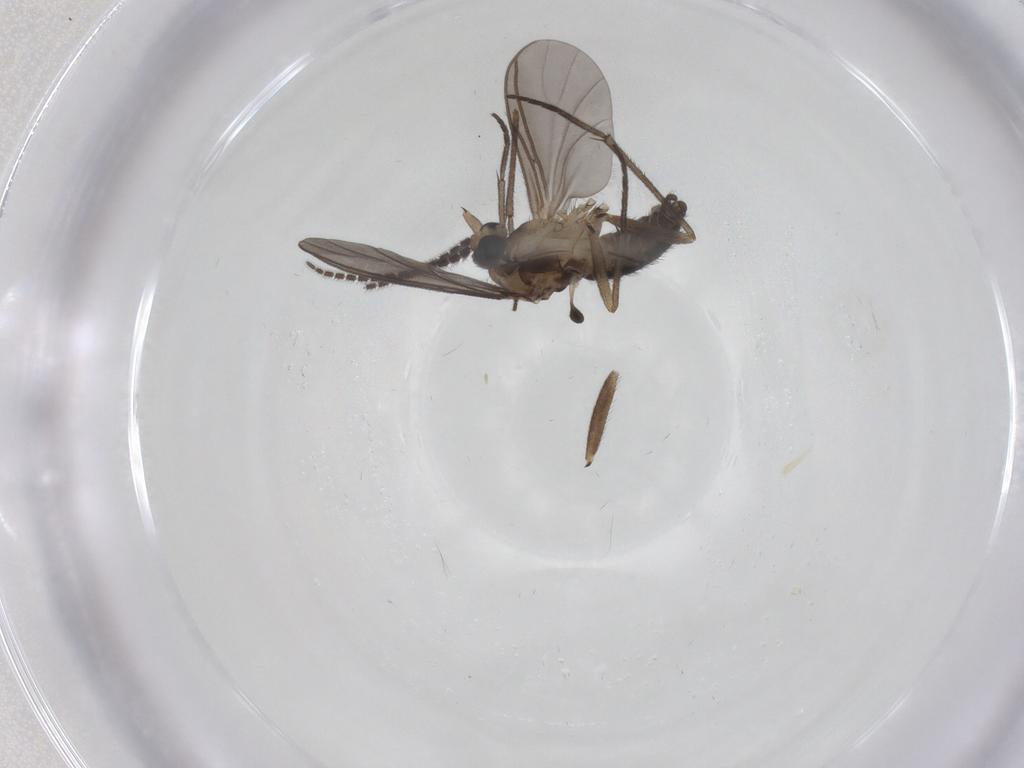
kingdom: Animalia
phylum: Arthropoda
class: Insecta
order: Diptera
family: Sciaridae
